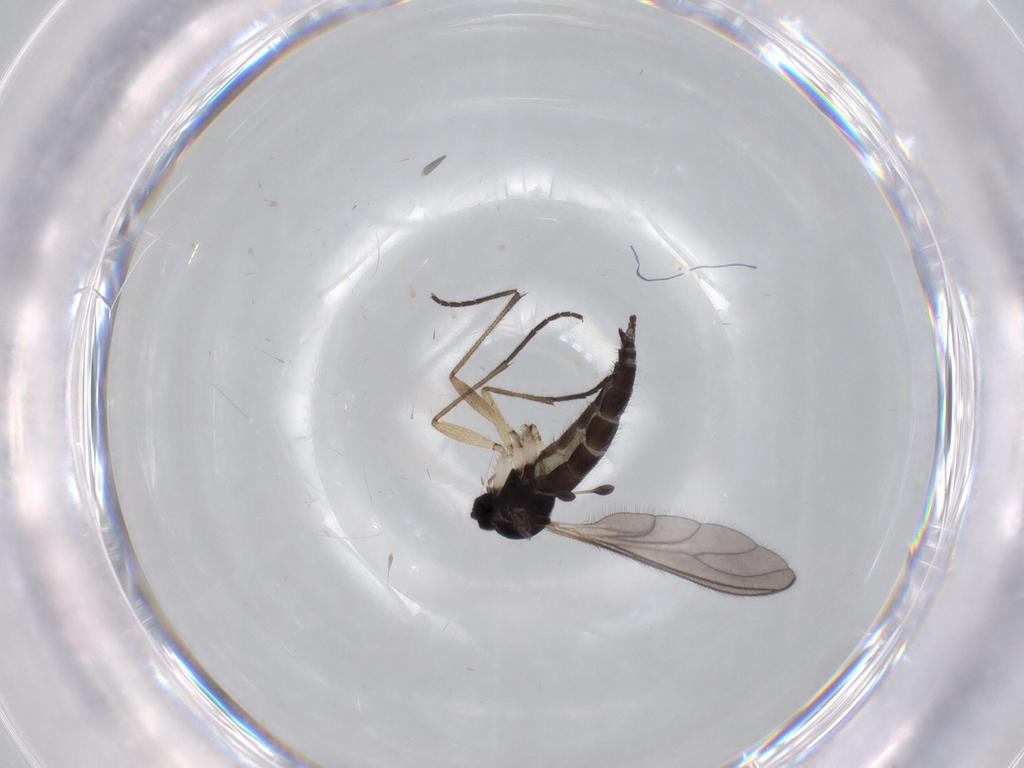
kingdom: Animalia
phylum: Arthropoda
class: Insecta
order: Diptera
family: Sciaridae
